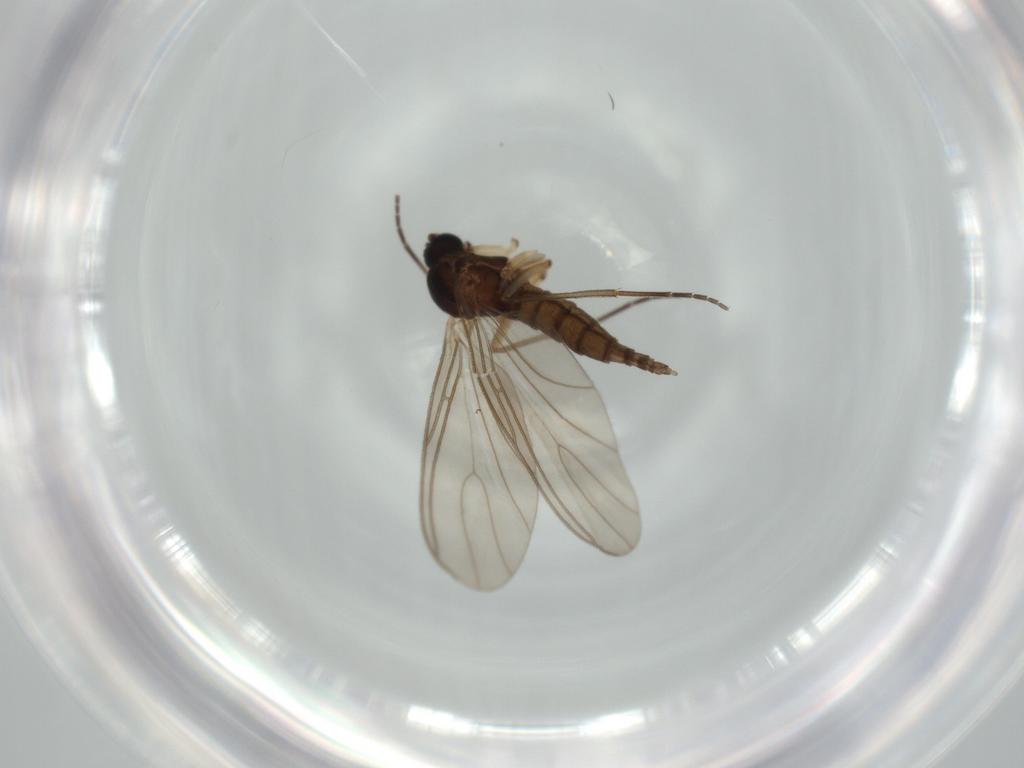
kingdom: Animalia
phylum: Arthropoda
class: Insecta
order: Diptera
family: Sciaridae
